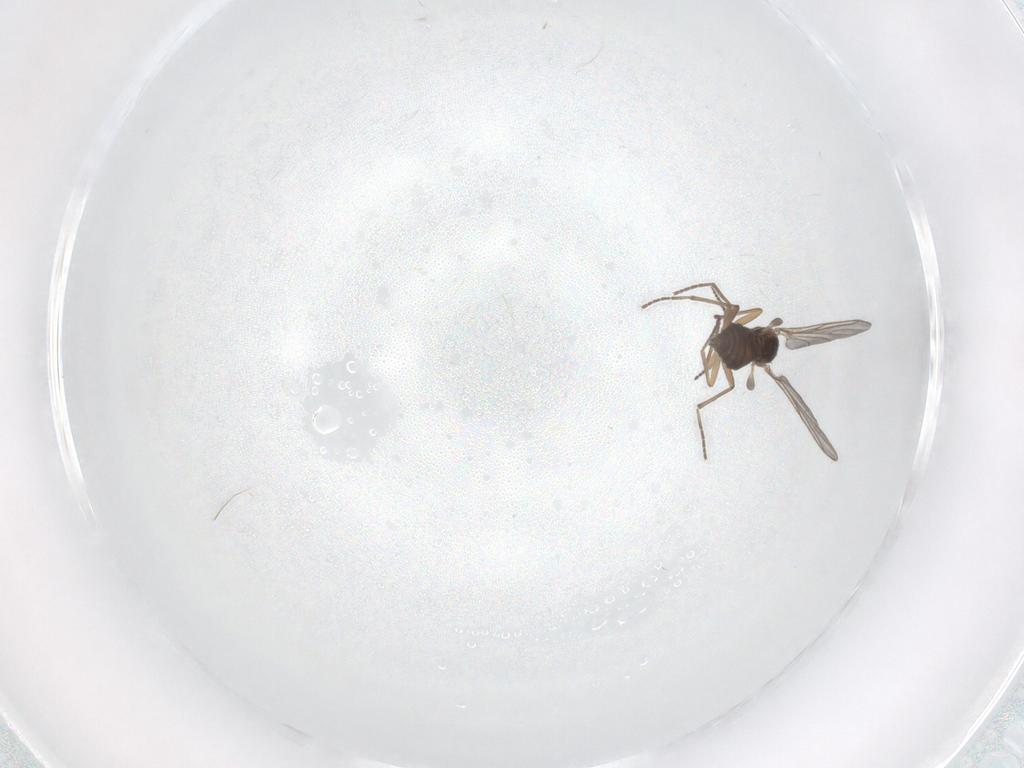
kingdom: Animalia
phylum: Arthropoda
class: Insecta
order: Diptera
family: Sciaridae
